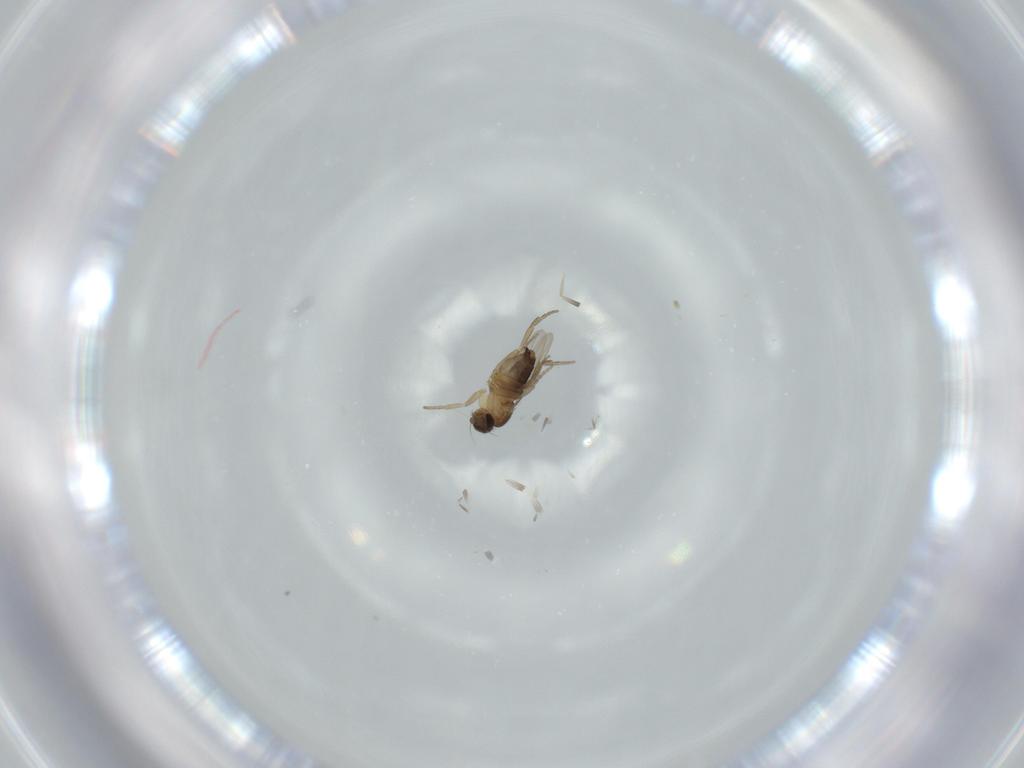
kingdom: Animalia
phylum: Arthropoda
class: Insecta
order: Diptera
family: Phoridae
